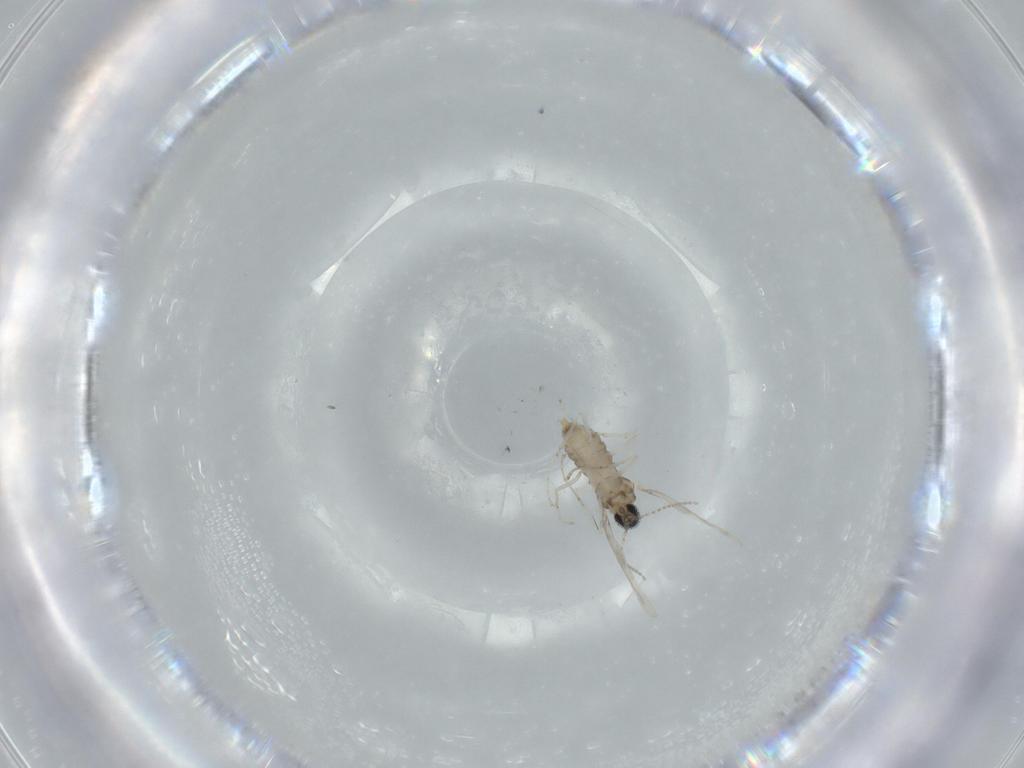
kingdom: Animalia
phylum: Arthropoda
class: Insecta
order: Diptera
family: Cecidomyiidae
